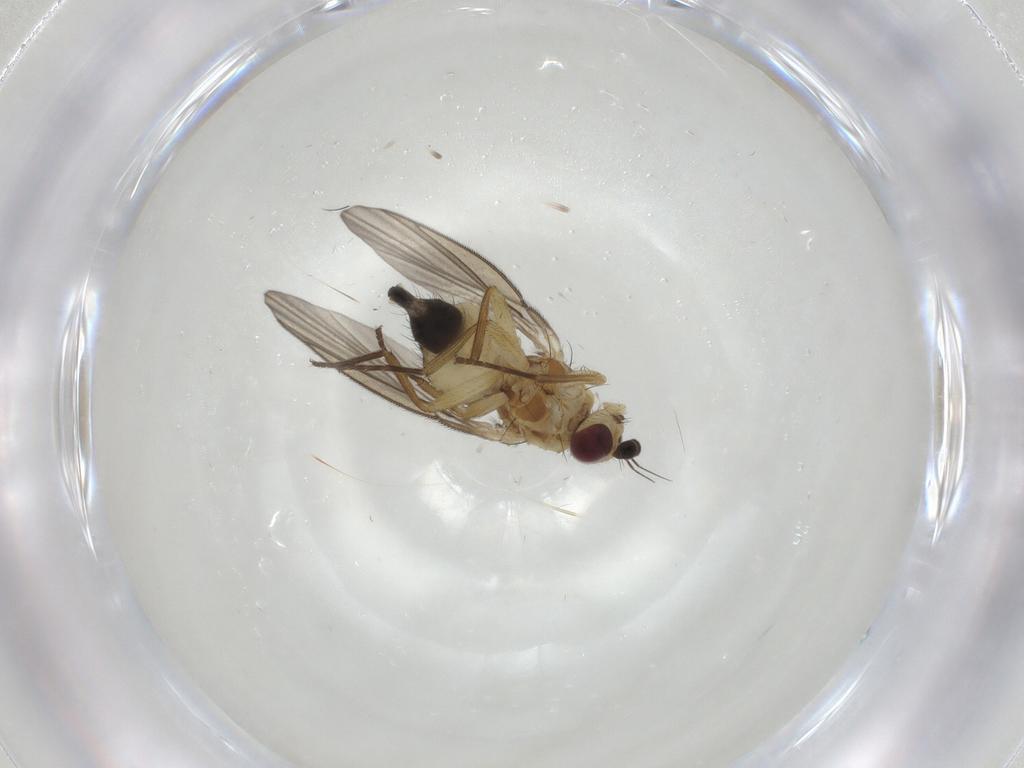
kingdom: Animalia
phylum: Arthropoda
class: Insecta
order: Diptera
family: Agromyzidae
